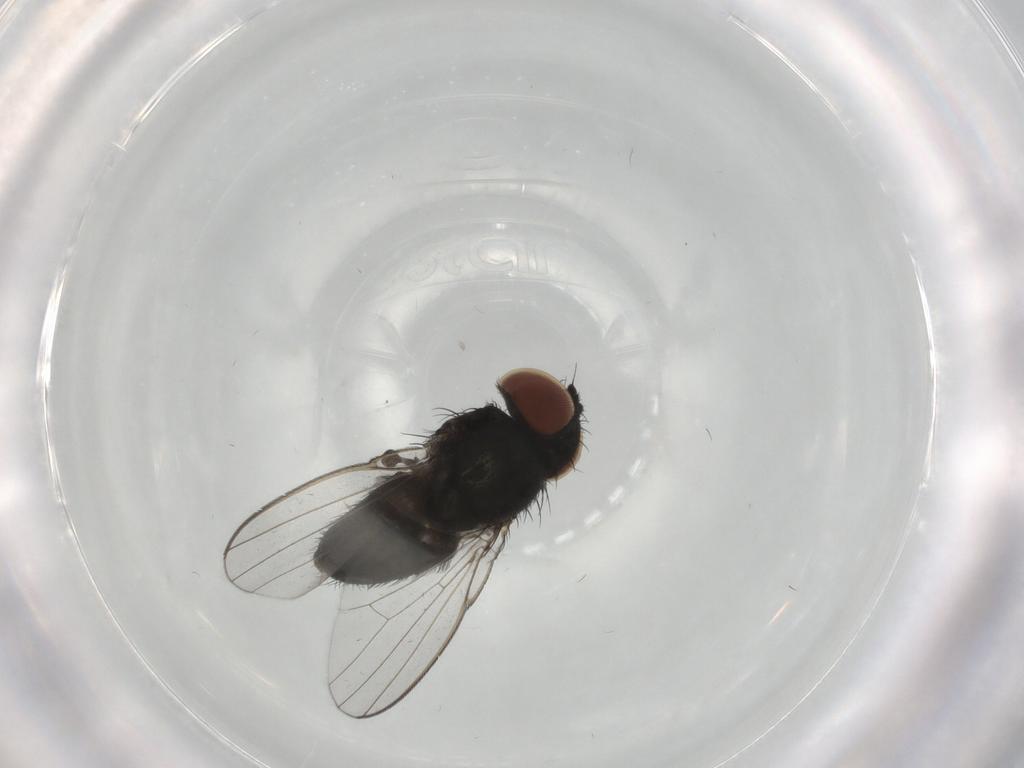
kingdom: Animalia
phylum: Arthropoda
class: Insecta
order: Diptera
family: Milichiidae
